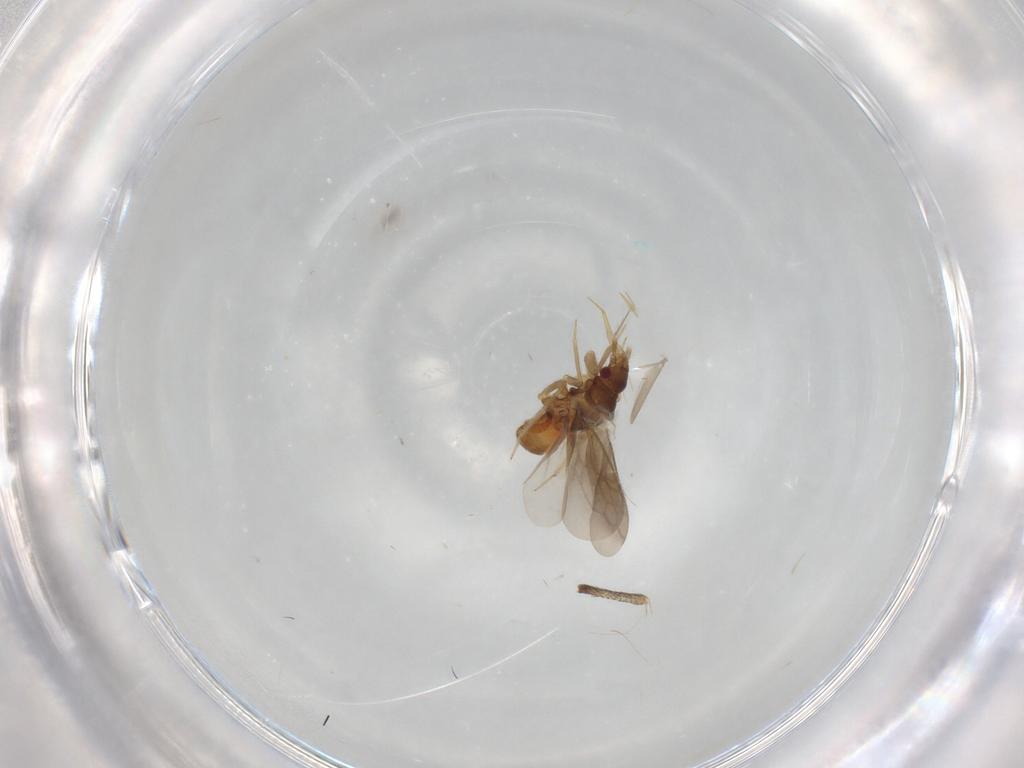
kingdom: Animalia
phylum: Arthropoda
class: Insecta
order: Hemiptera
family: Ceratocombidae
